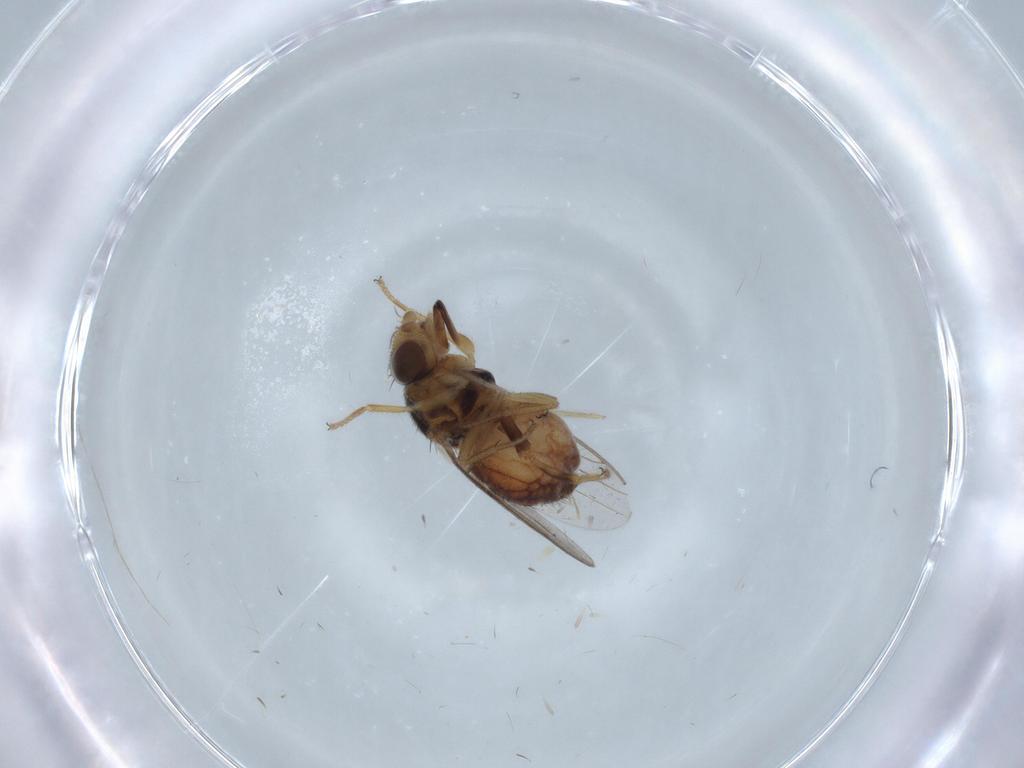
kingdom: Animalia
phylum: Arthropoda
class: Insecta
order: Diptera
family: Chloropidae
